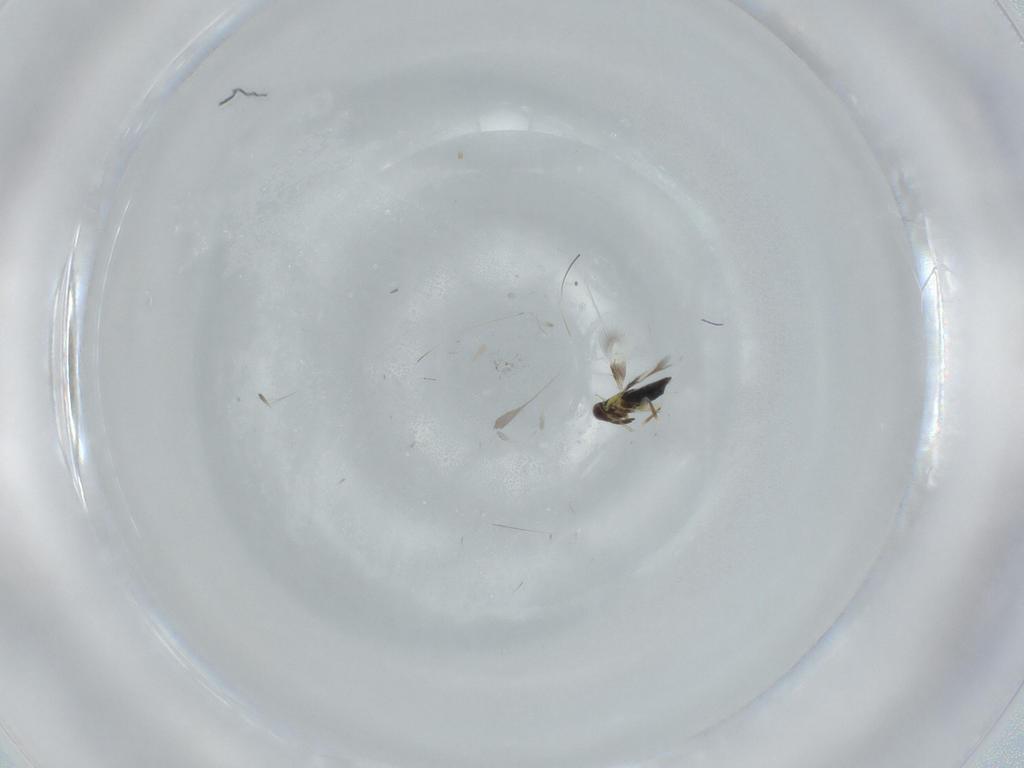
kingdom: Animalia
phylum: Arthropoda
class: Insecta
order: Hymenoptera
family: Signiphoridae
